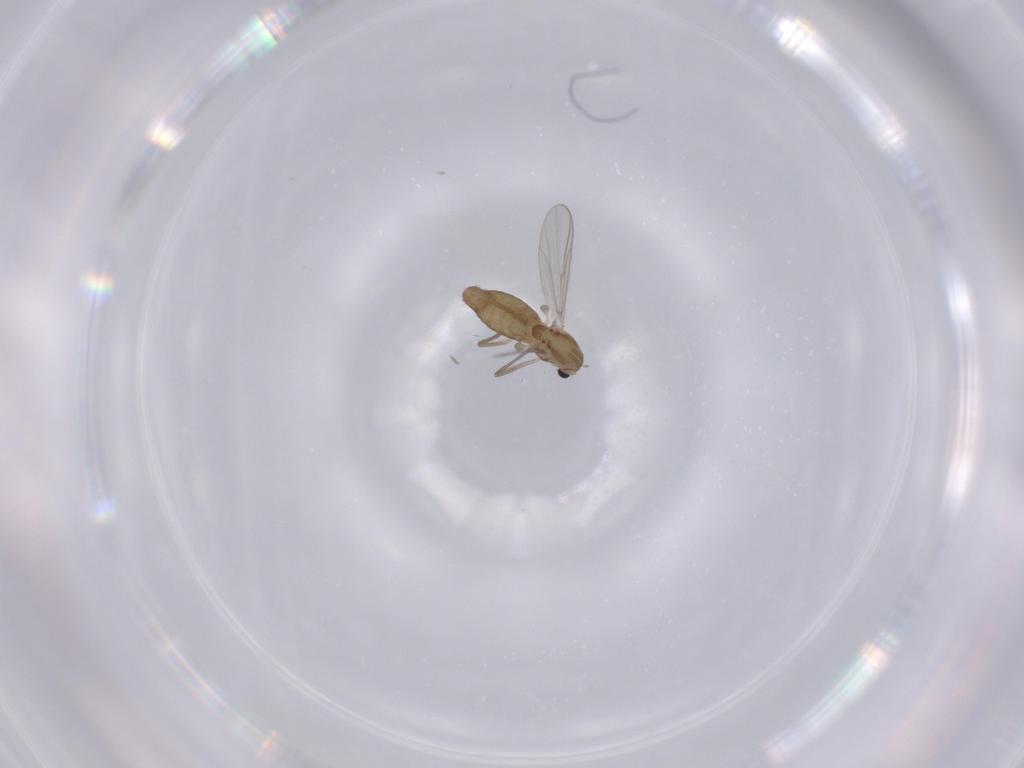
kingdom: Animalia
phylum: Arthropoda
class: Insecta
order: Diptera
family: Chironomidae
